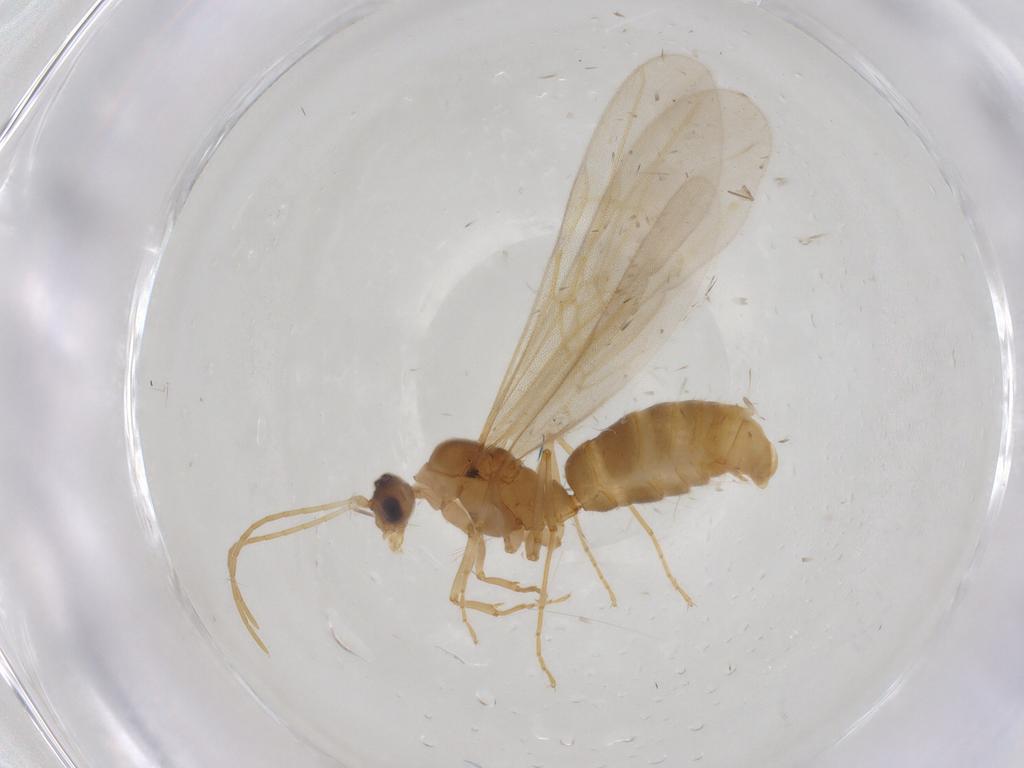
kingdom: Animalia
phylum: Arthropoda
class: Insecta
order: Hymenoptera
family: Formicidae
